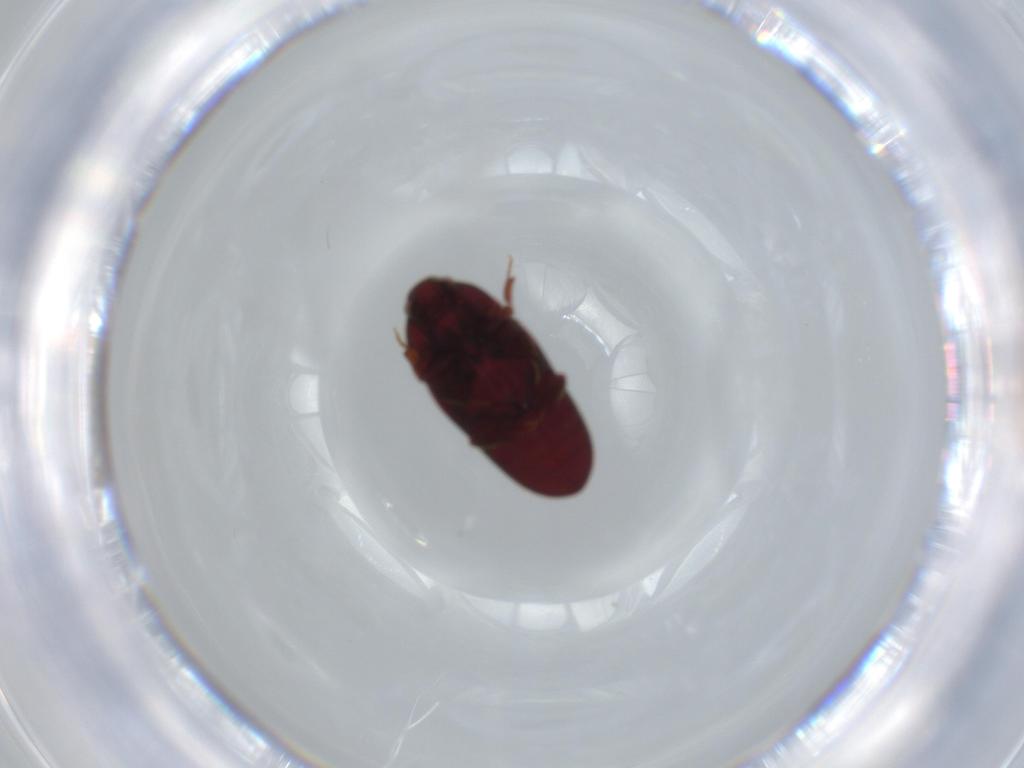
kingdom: Animalia
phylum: Arthropoda
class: Insecta
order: Coleoptera
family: Throscidae
